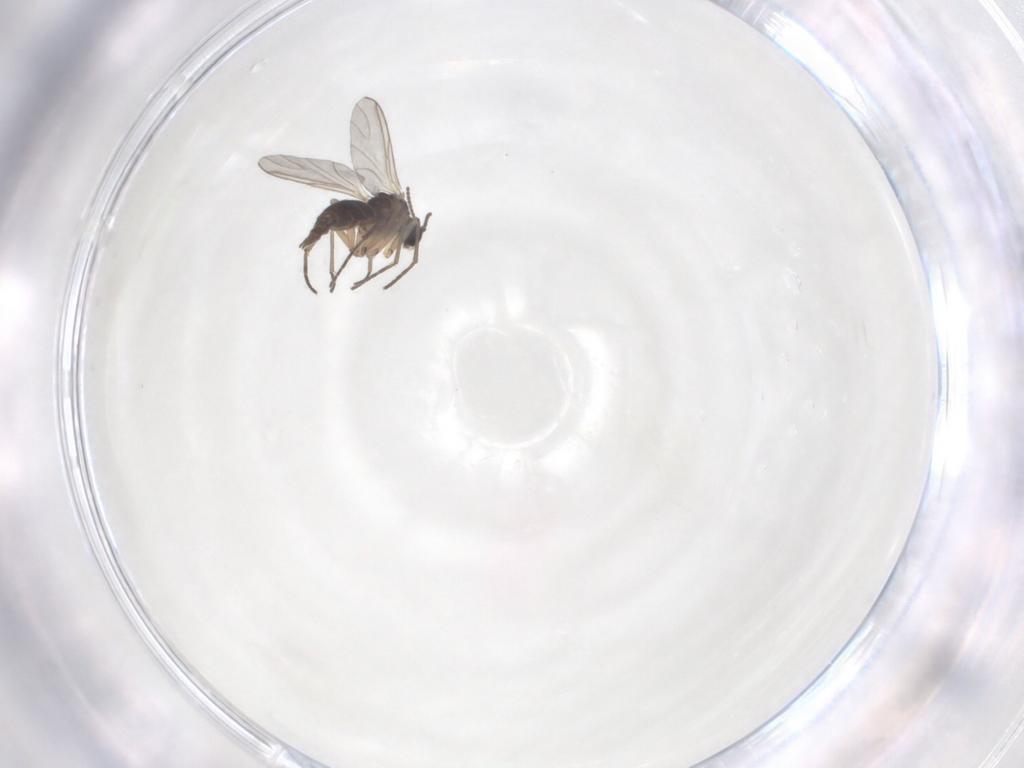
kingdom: Animalia
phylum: Arthropoda
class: Insecta
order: Diptera
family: Sciaridae
